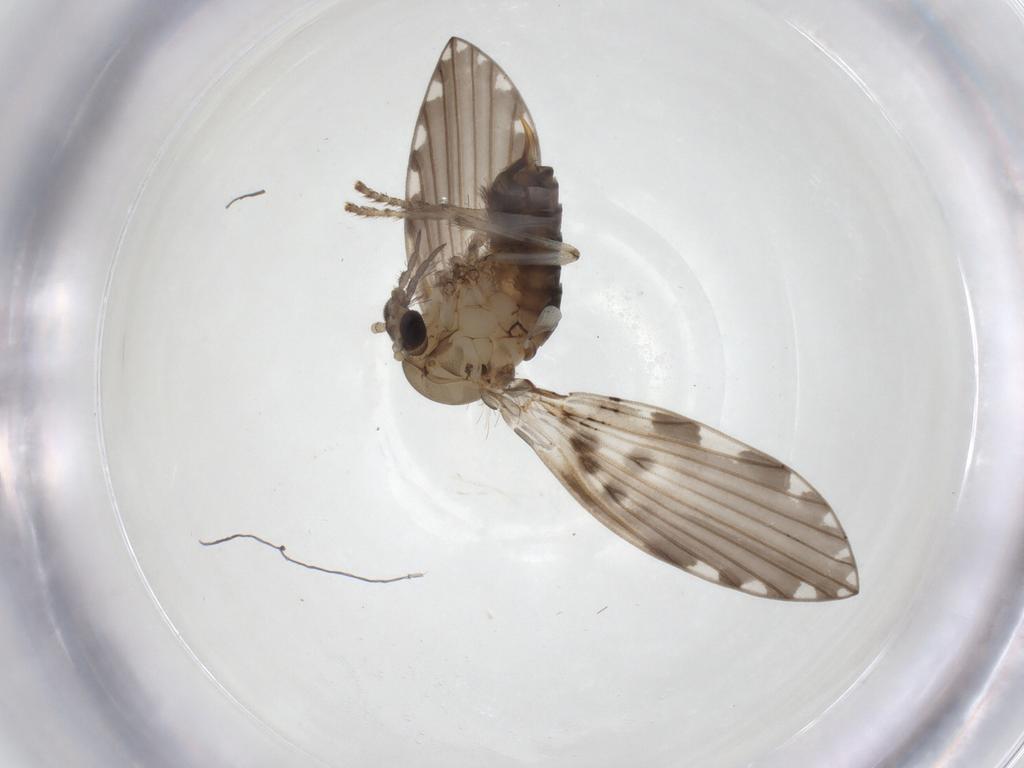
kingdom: Animalia
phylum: Arthropoda
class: Insecta
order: Diptera
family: Psychodidae
